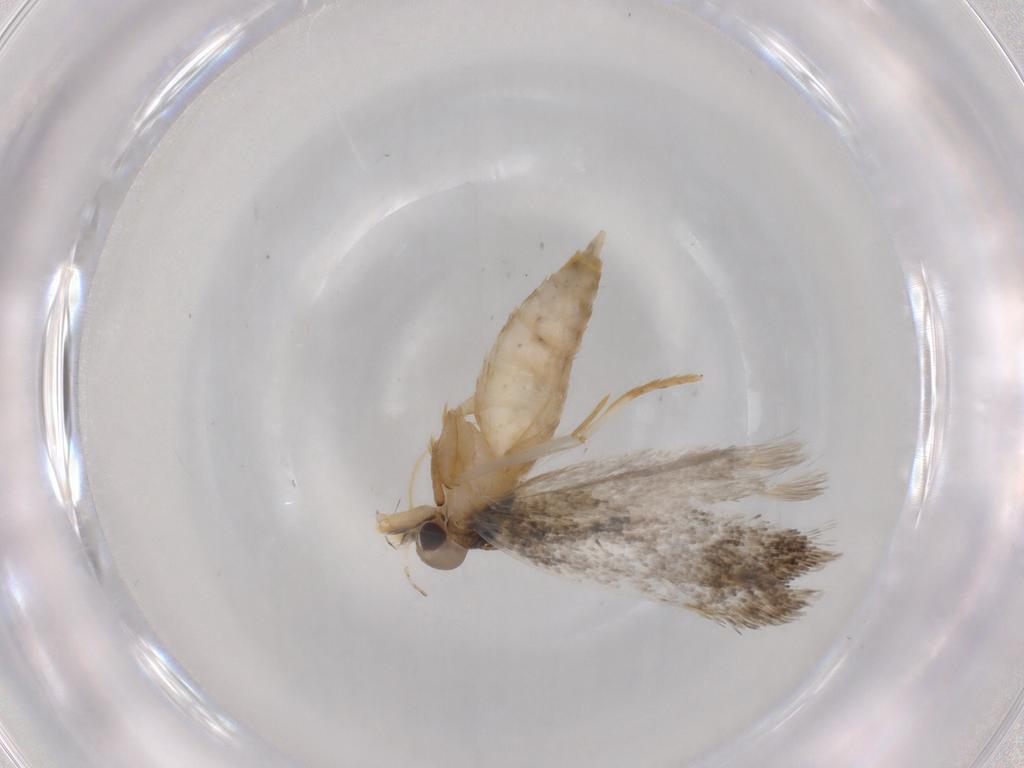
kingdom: Animalia
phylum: Arthropoda
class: Insecta
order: Lepidoptera
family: Autostichidae
